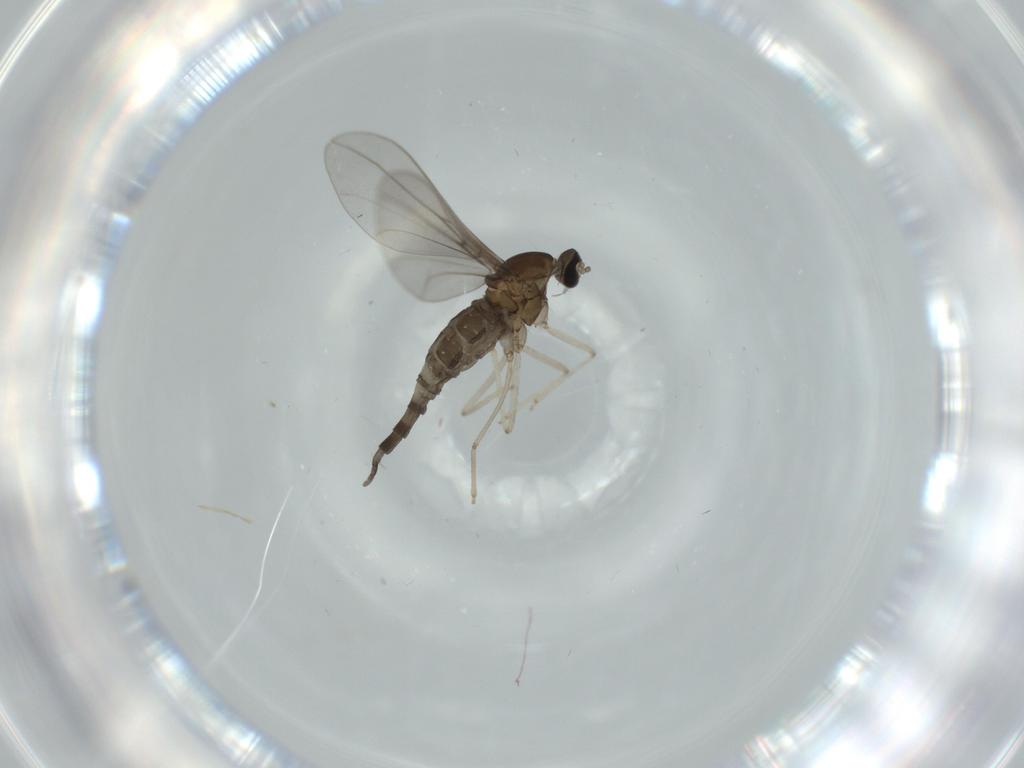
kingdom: Animalia
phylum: Arthropoda
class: Insecta
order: Diptera
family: Cecidomyiidae
